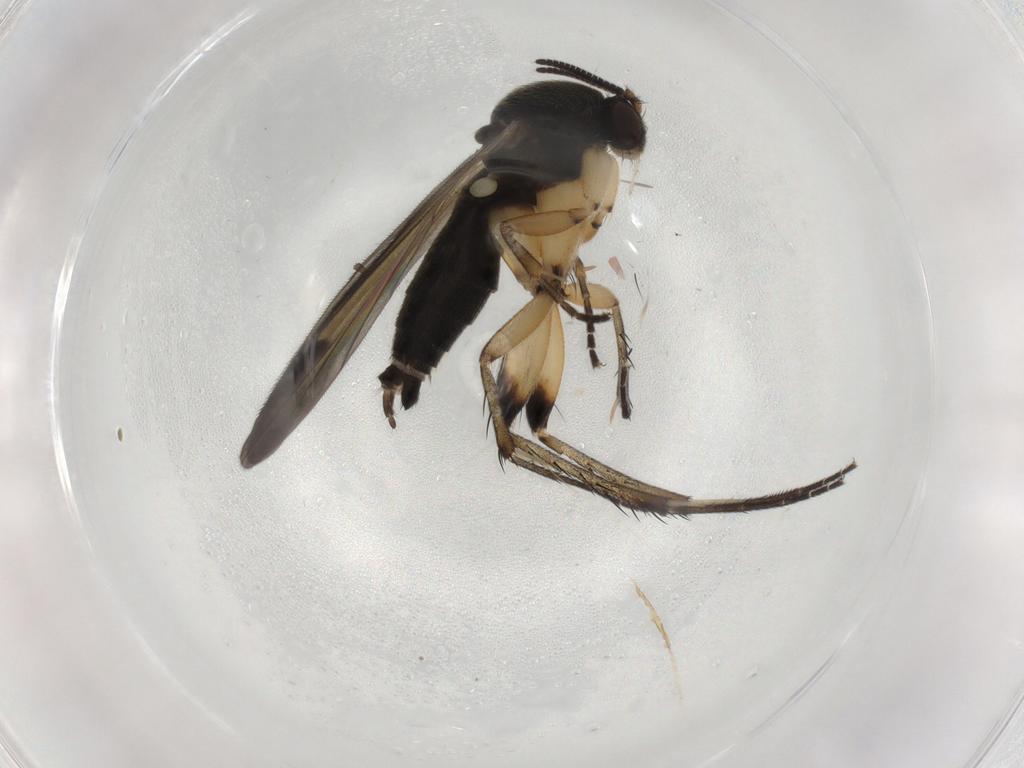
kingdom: Animalia
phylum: Arthropoda
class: Insecta
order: Diptera
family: Mycetophilidae
